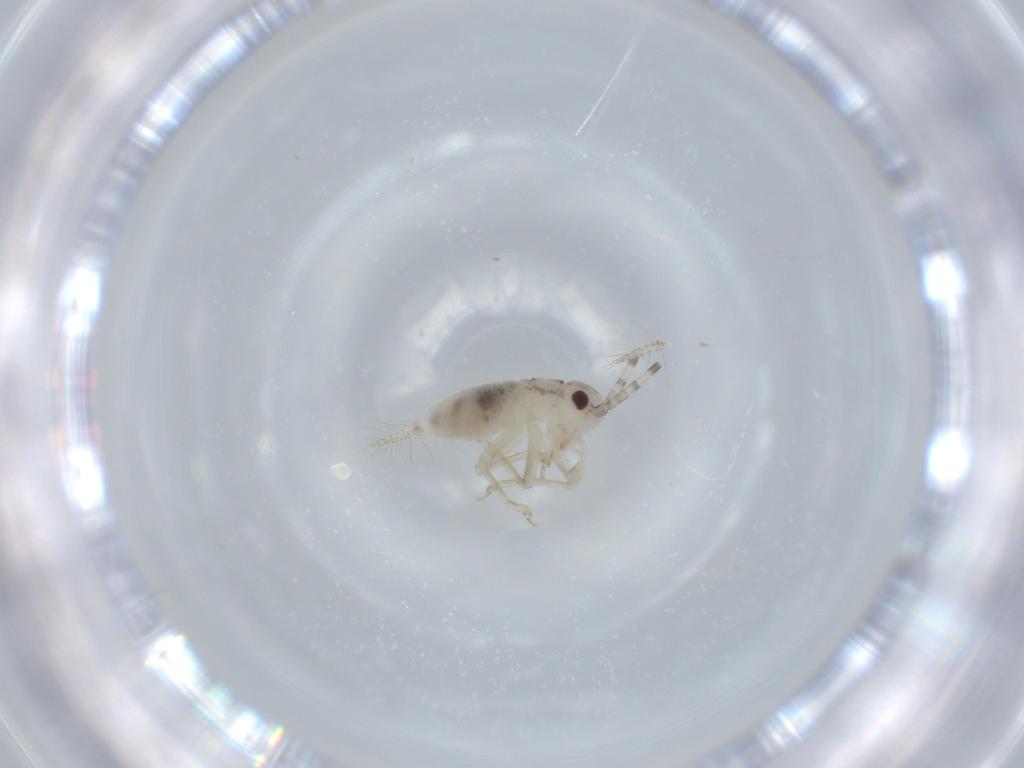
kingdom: Animalia
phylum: Arthropoda
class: Insecta
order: Orthoptera
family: Trigonidiidae
